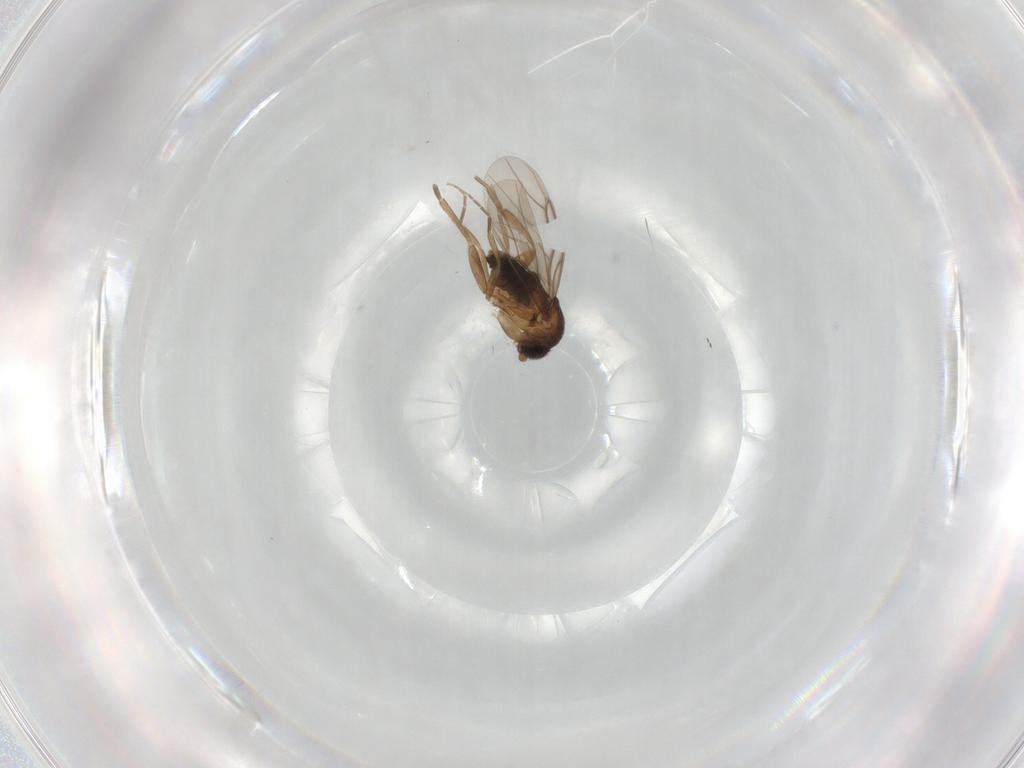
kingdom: Animalia
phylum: Arthropoda
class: Insecta
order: Diptera
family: Phoridae
